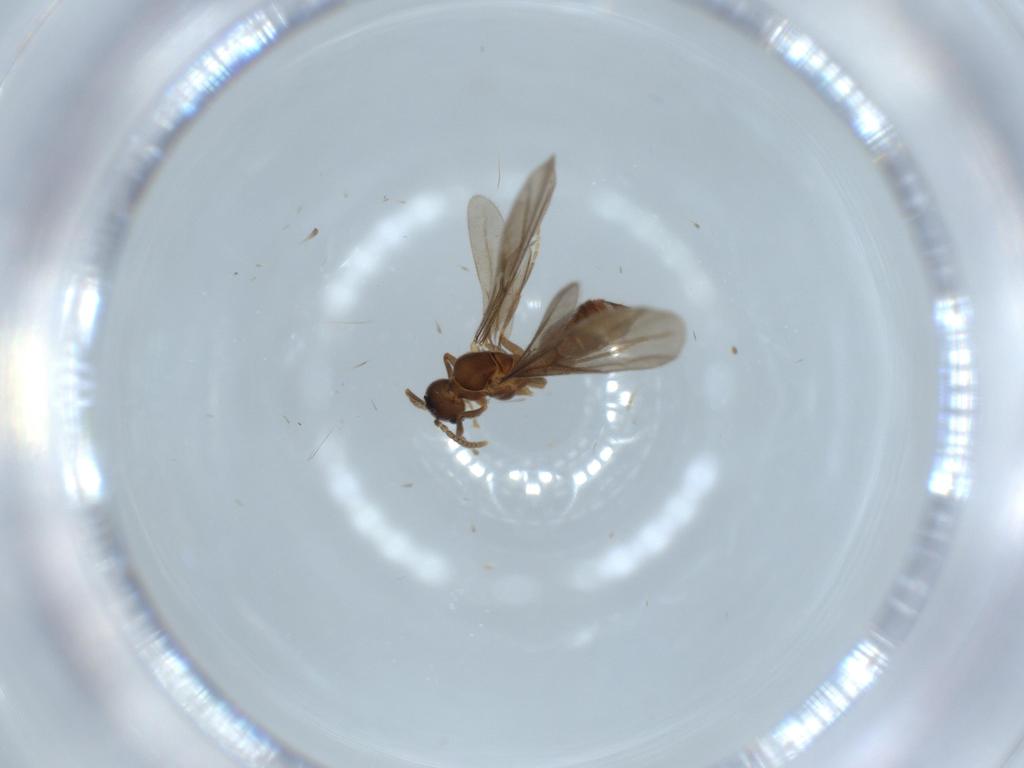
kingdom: Animalia
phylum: Arthropoda
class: Insecta
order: Hymenoptera
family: Formicidae
